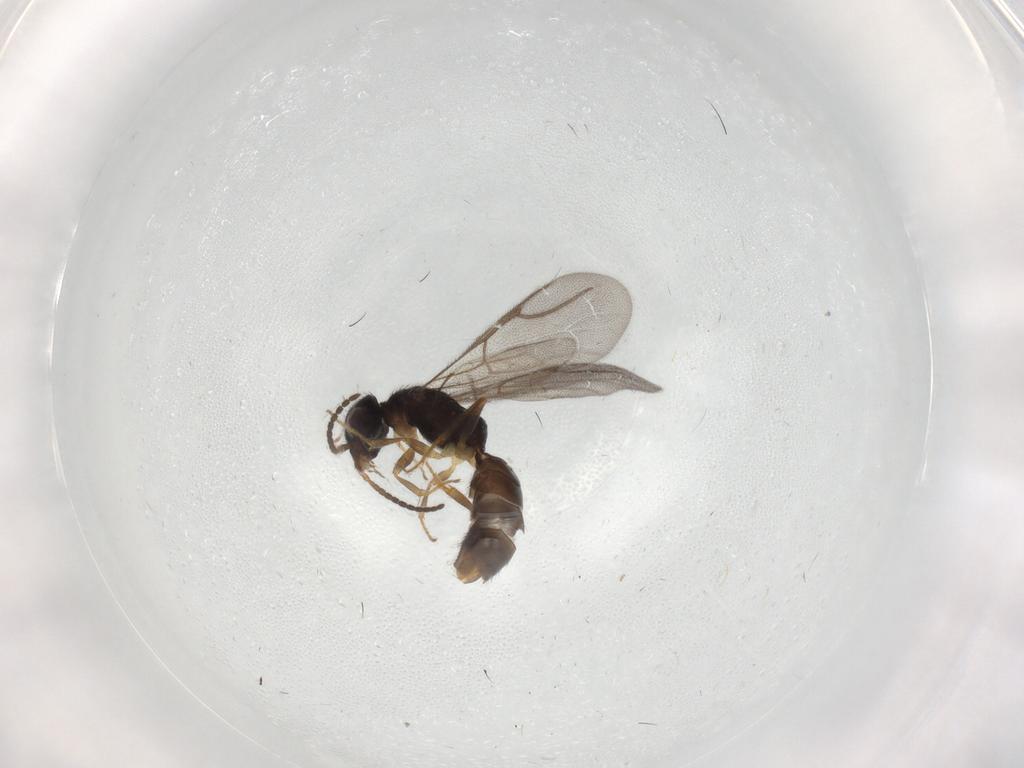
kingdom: Animalia
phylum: Arthropoda
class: Insecta
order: Hymenoptera
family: Bethylidae
